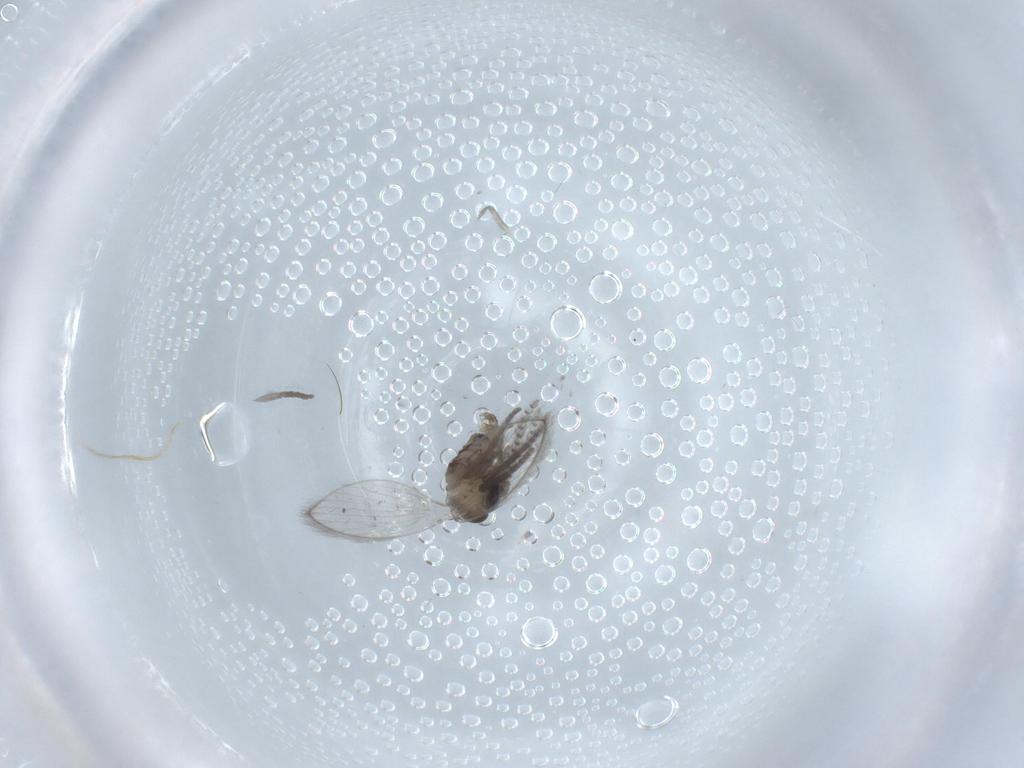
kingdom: Animalia
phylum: Arthropoda
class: Insecta
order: Diptera
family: Psychodidae
